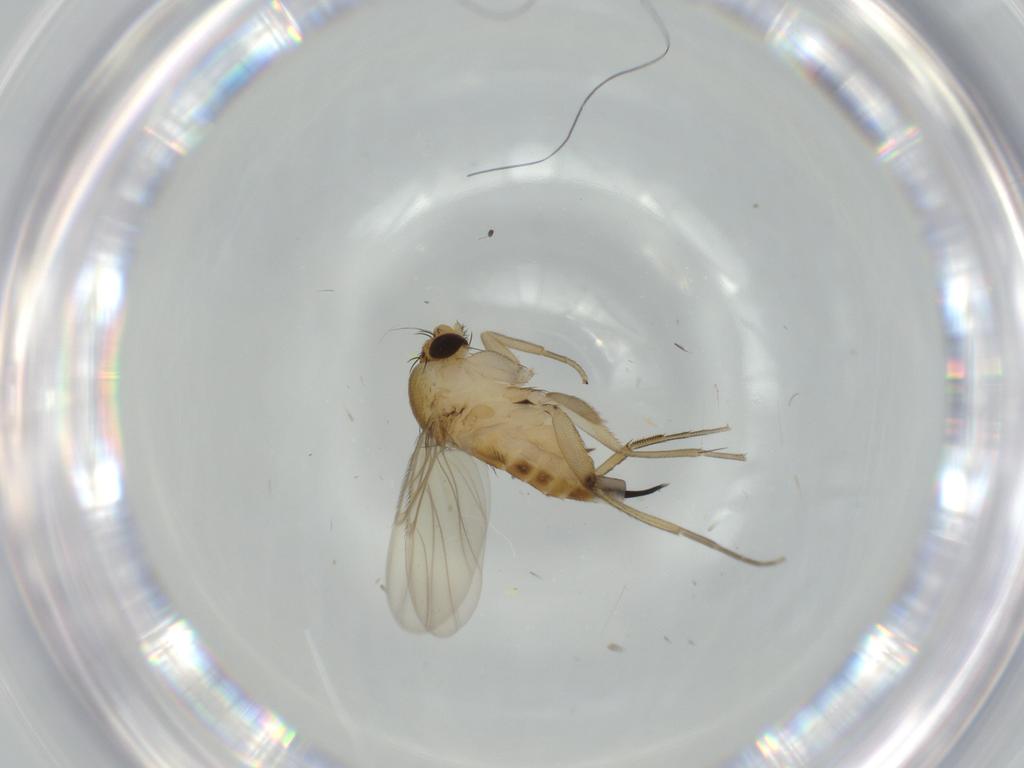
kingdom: Animalia
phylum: Arthropoda
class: Insecta
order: Diptera
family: Phoridae
